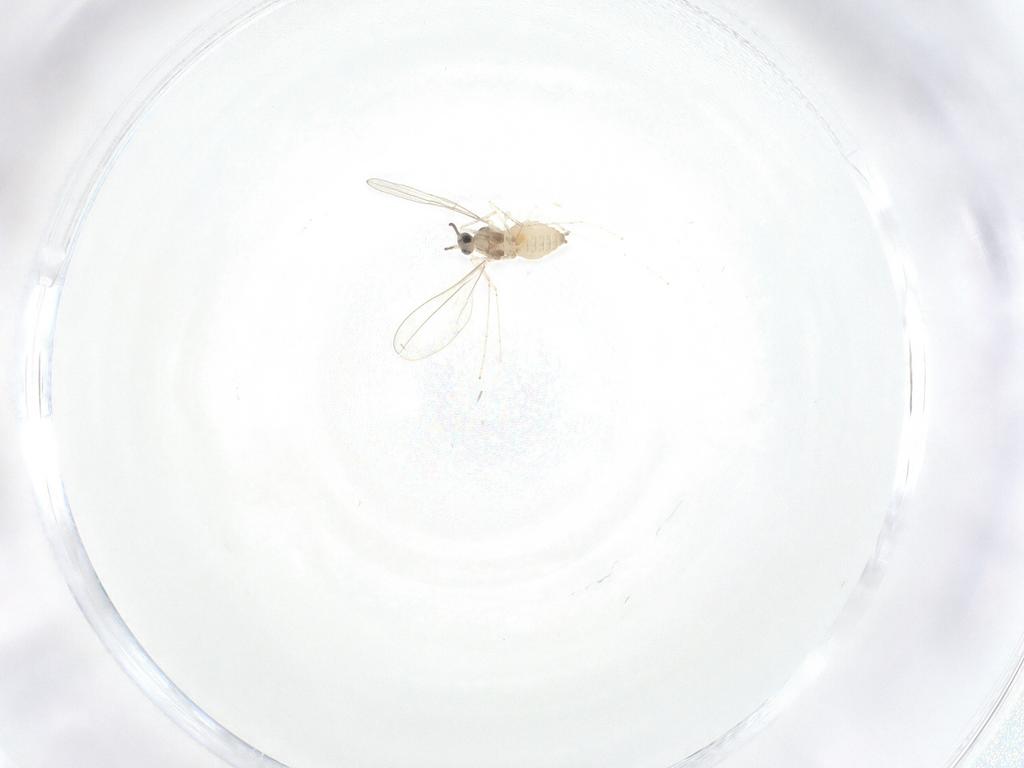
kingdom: Animalia
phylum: Arthropoda
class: Insecta
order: Diptera
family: Cecidomyiidae
